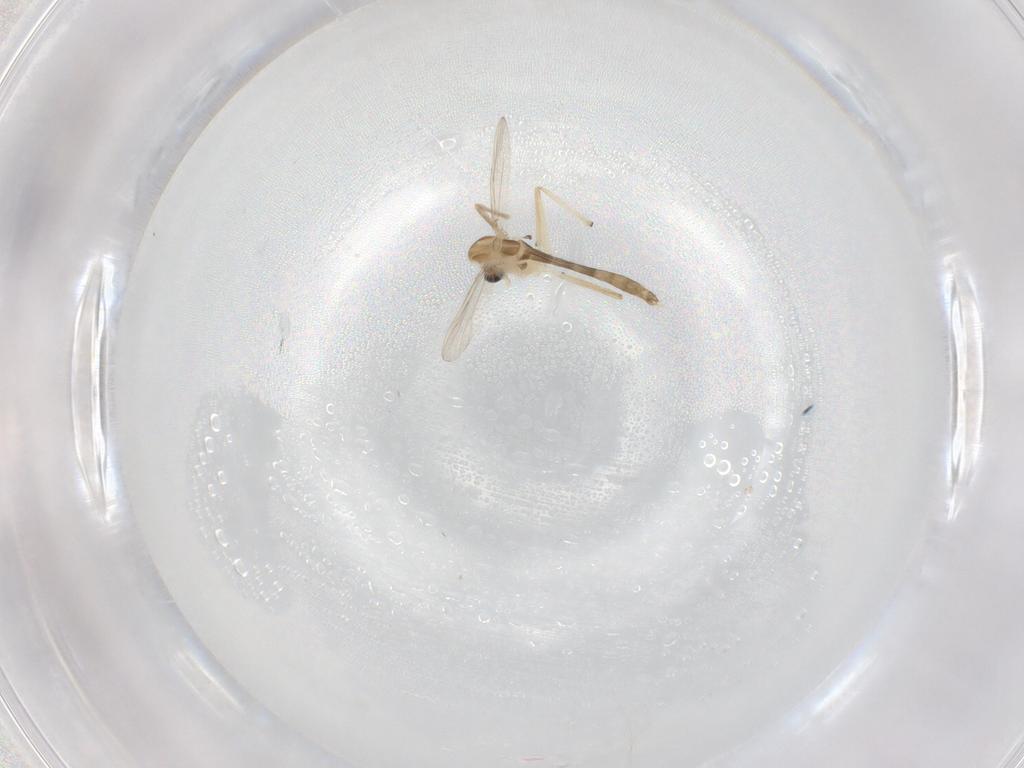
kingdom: Animalia
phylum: Arthropoda
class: Insecta
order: Diptera
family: Chironomidae
